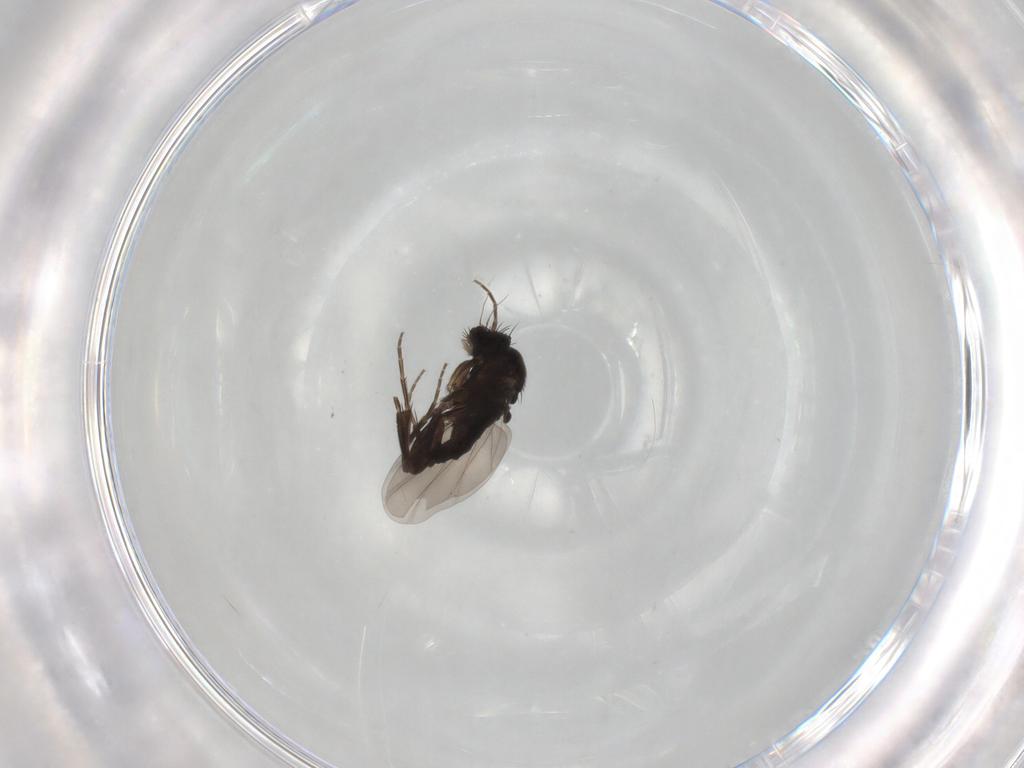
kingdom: Animalia
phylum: Arthropoda
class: Insecta
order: Diptera
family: Phoridae
